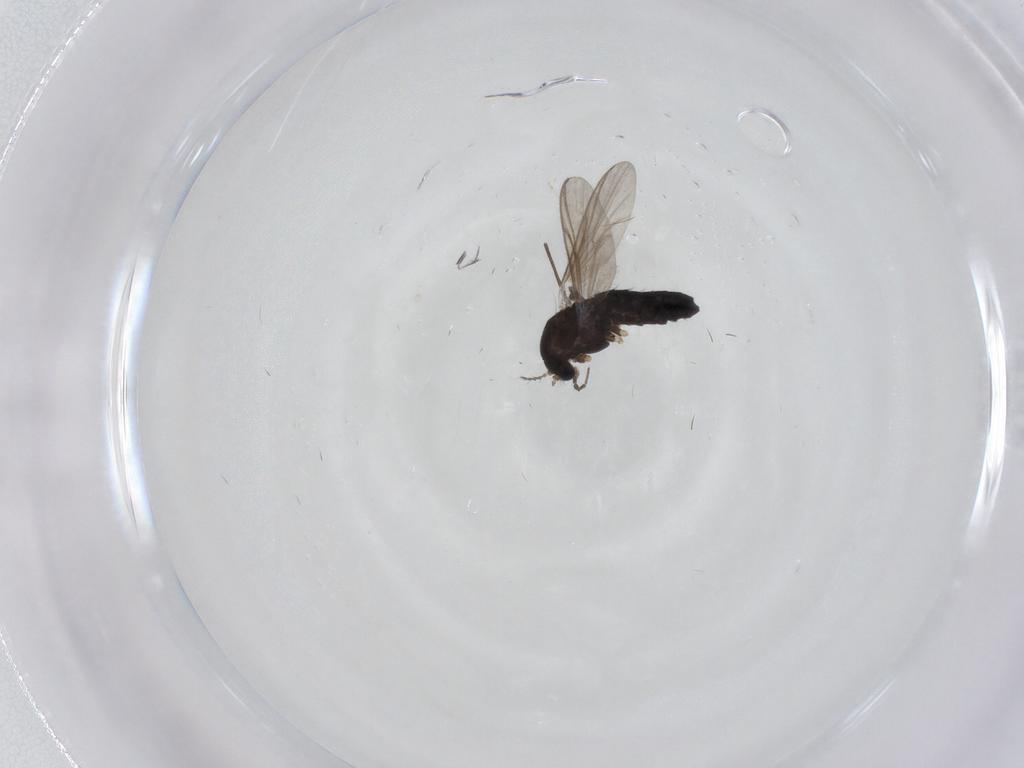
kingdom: Animalia
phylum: Arthropoda
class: Insecta
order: Diptera
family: Chironomidae
